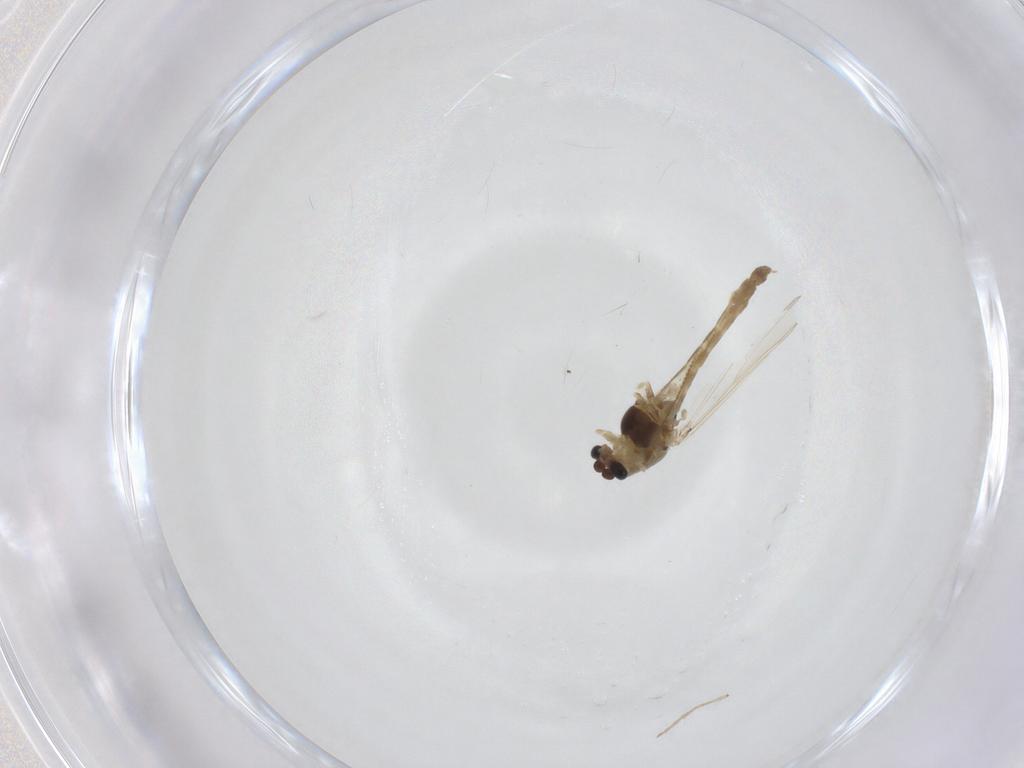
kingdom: Animalia
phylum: Arthropoda
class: Insecta
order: Diptera
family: Chironomidae
